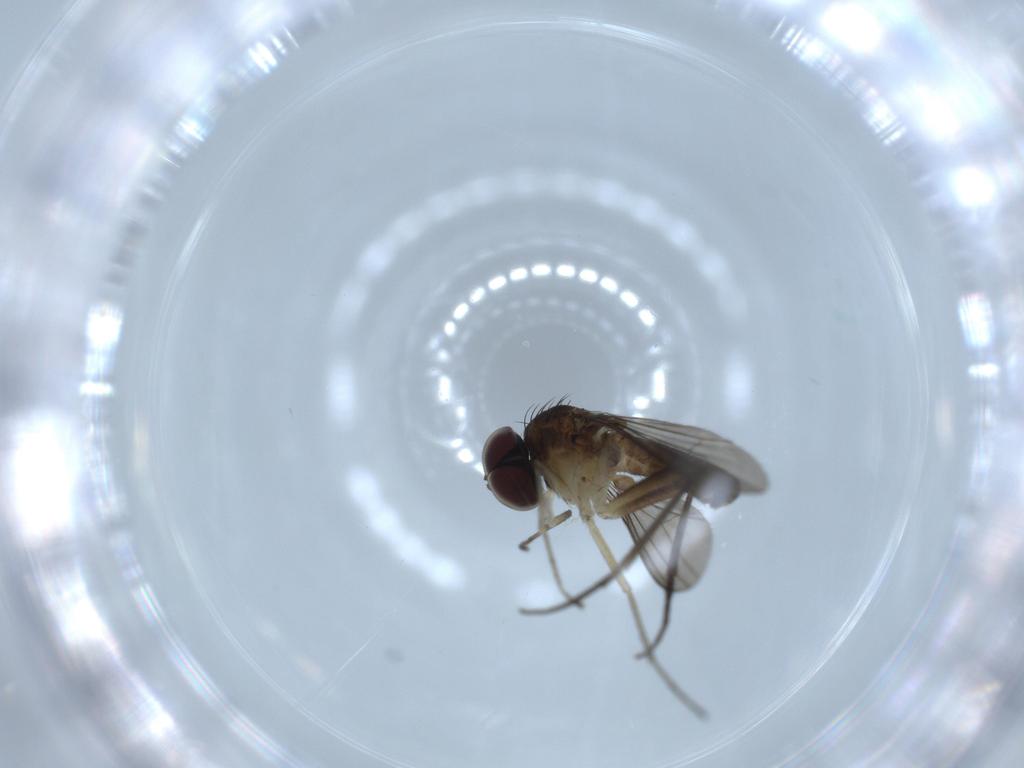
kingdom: Animalia
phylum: Arthropoda
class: Insecta
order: Diptera
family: Dolichopodidae
